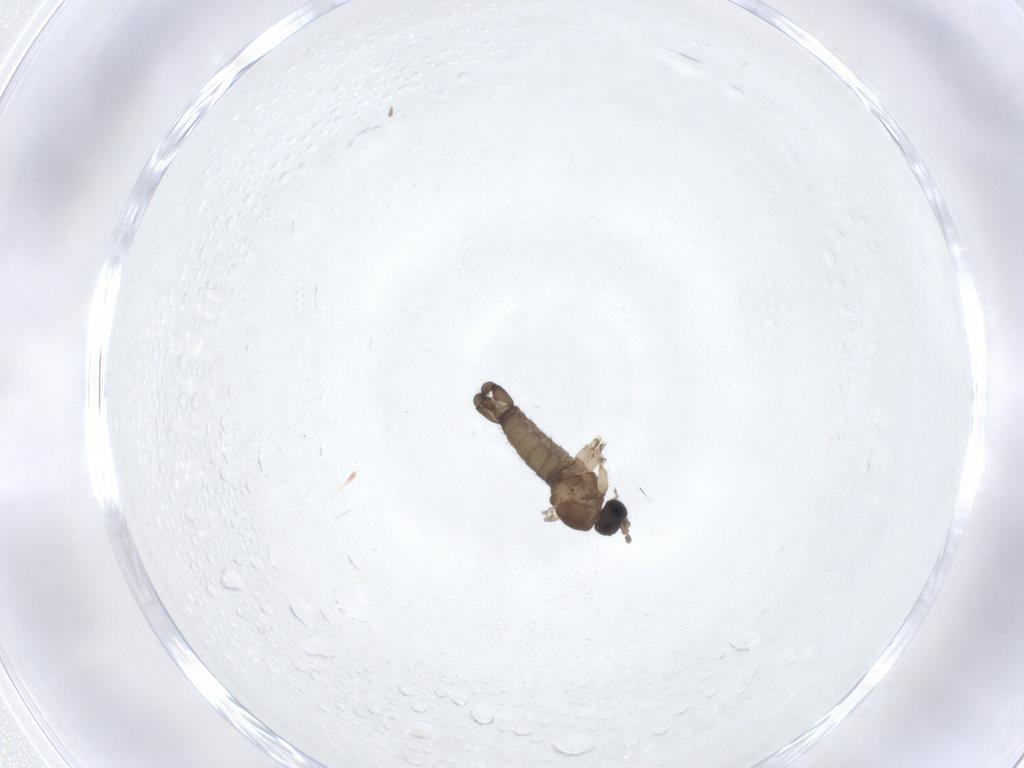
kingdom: Animalia
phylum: Arthropoda
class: Insecta
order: Diptera
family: Sciaridae
